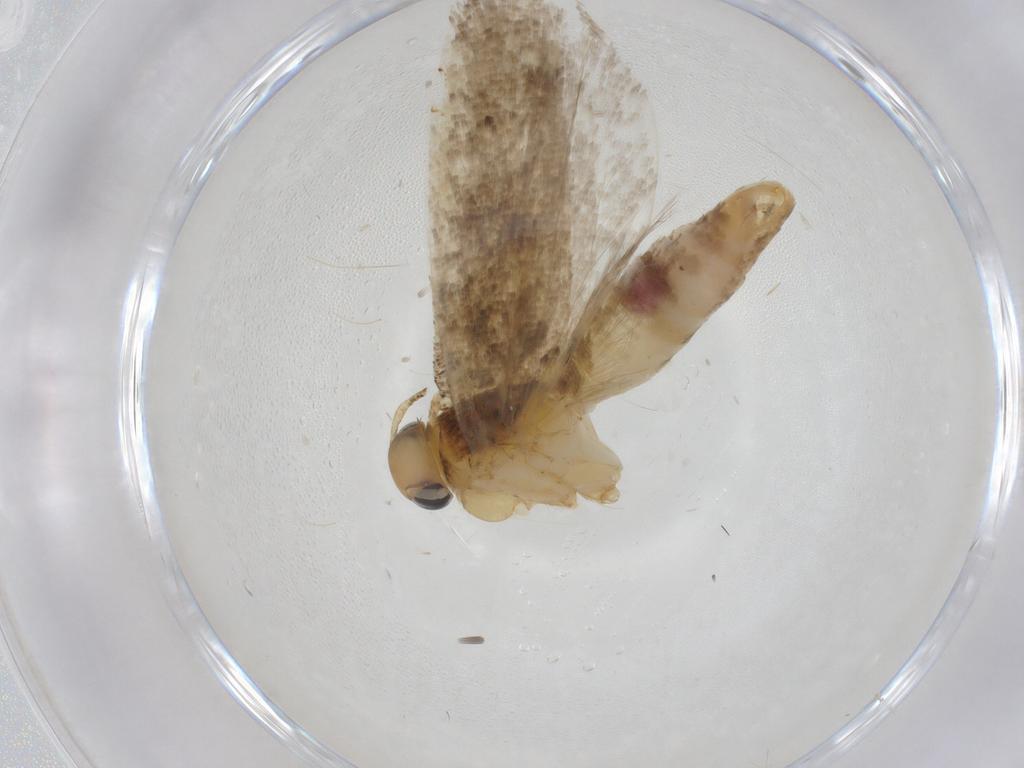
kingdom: Animalia
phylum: Arthropoda
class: Insecta
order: Lepidoptera
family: Gelechiidae
